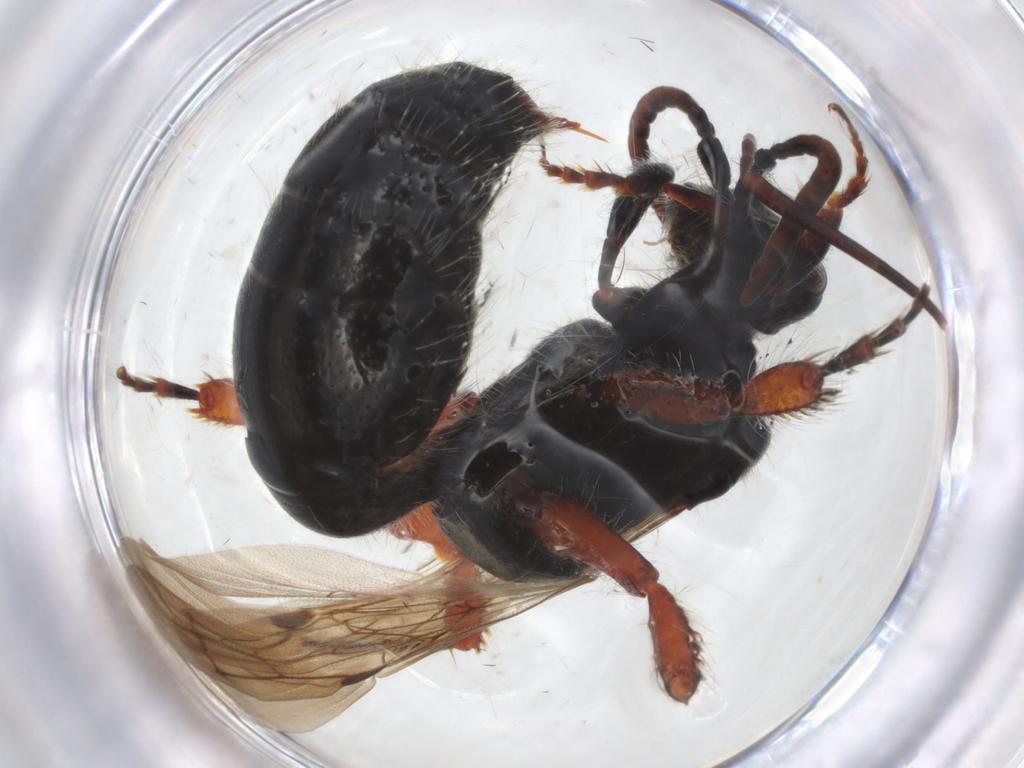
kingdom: Animalia
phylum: Arthropoda
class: Insecta
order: Hymenoptera
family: Formicidae
